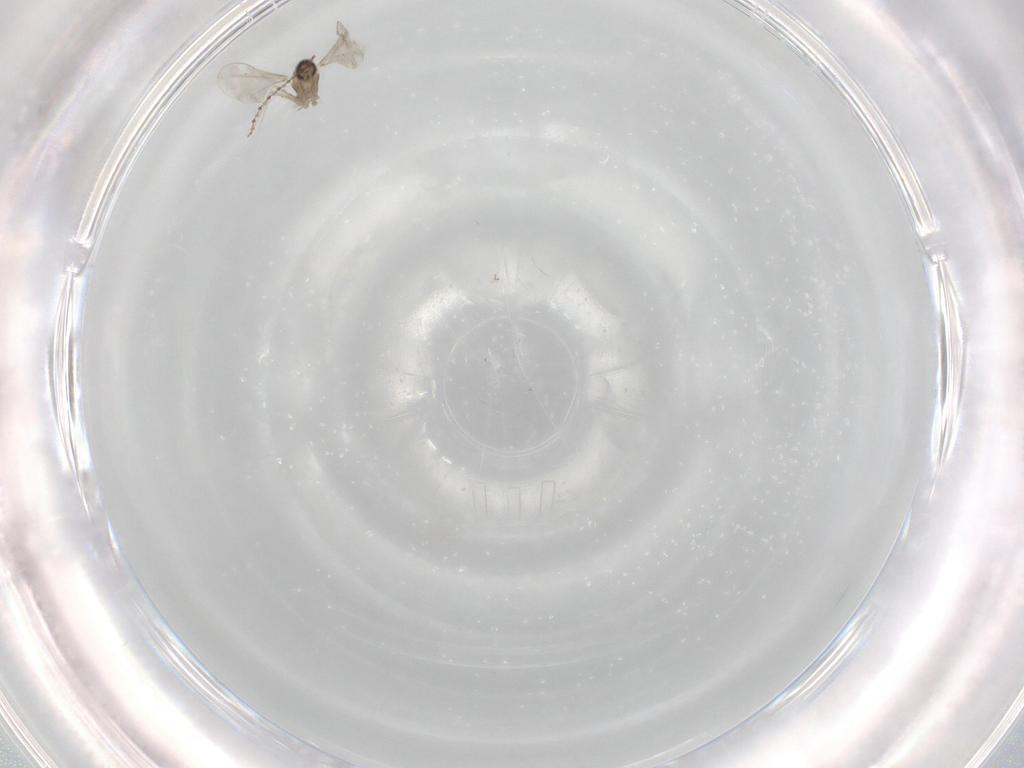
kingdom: Animalia
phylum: Arthropoda
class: Insecta
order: Diptera
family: Cecidomyiidae
